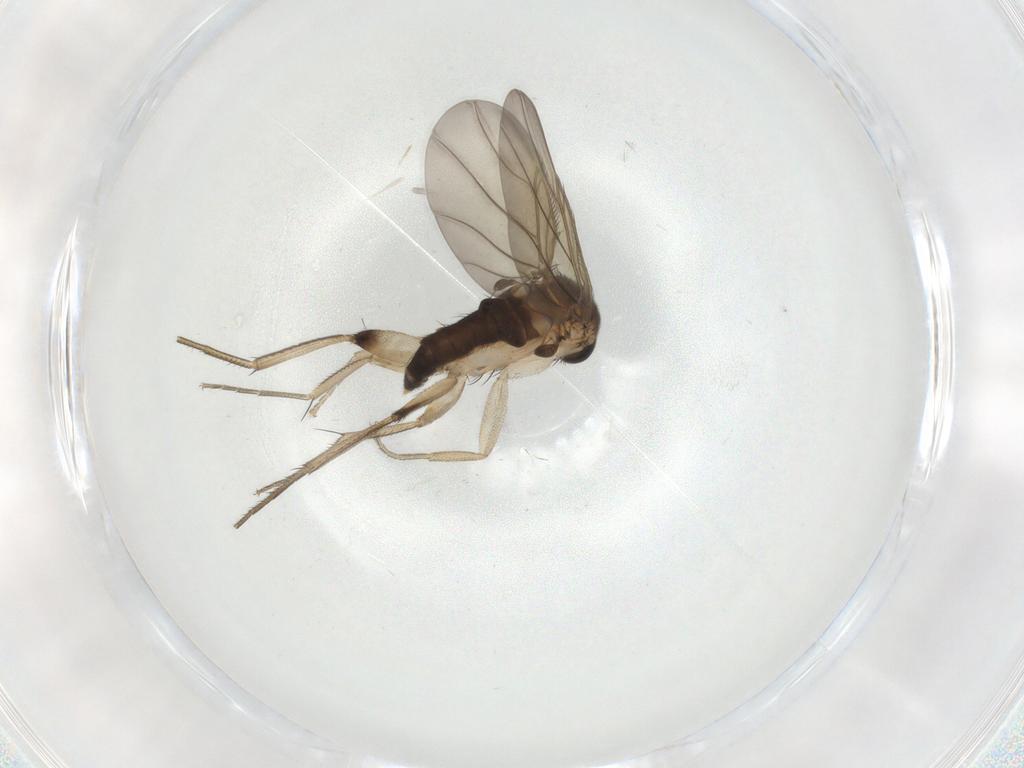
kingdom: Animalia
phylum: Arthropoda
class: Insecta
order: Diptera
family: Phoridae
